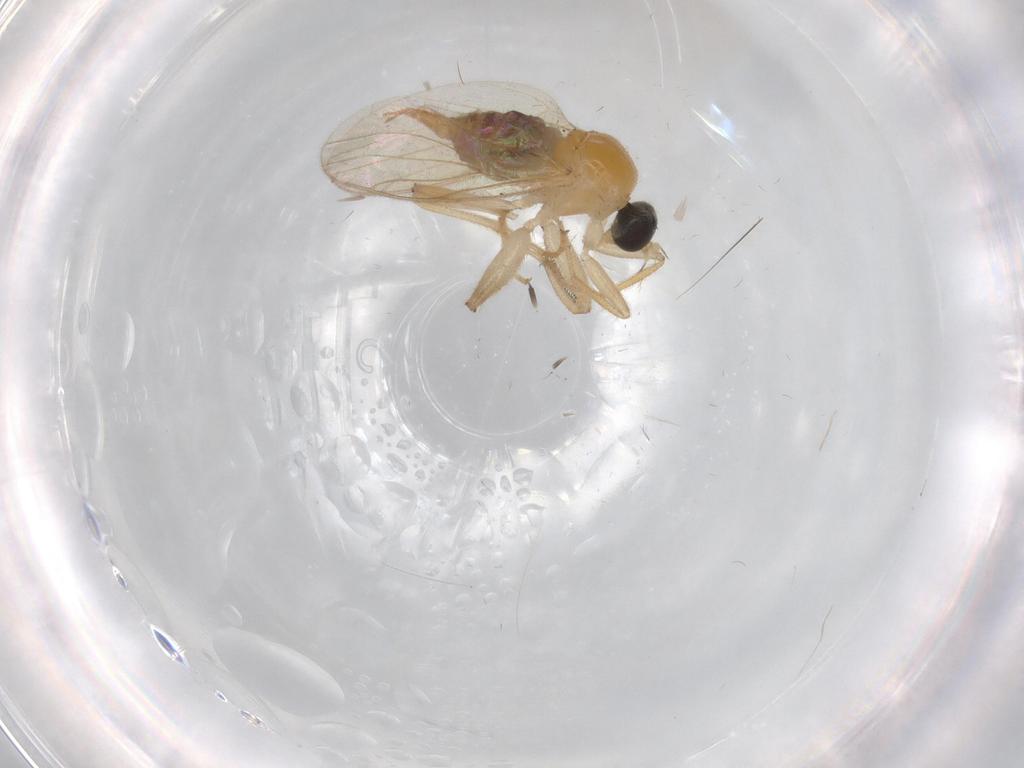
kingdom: Animalia
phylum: Arthropoda
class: Insecta
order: Diptera
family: Cecidomyiidae
